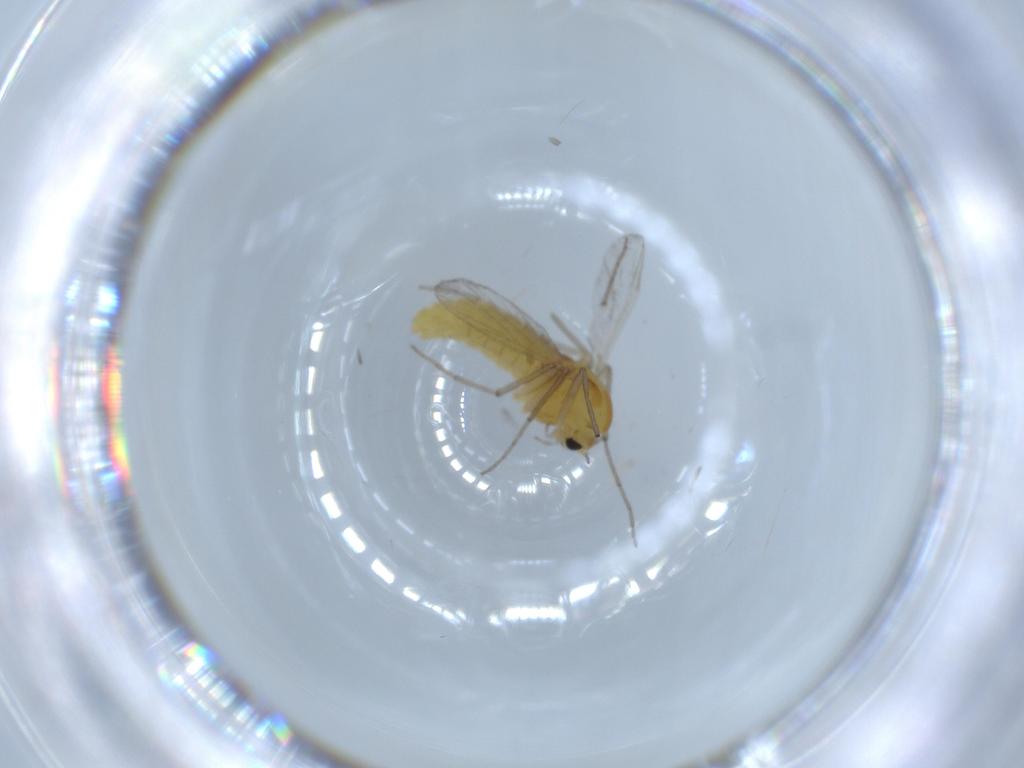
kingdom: Animalia
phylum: Arthropoda
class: Insecta
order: Diptera
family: Chironomidae
